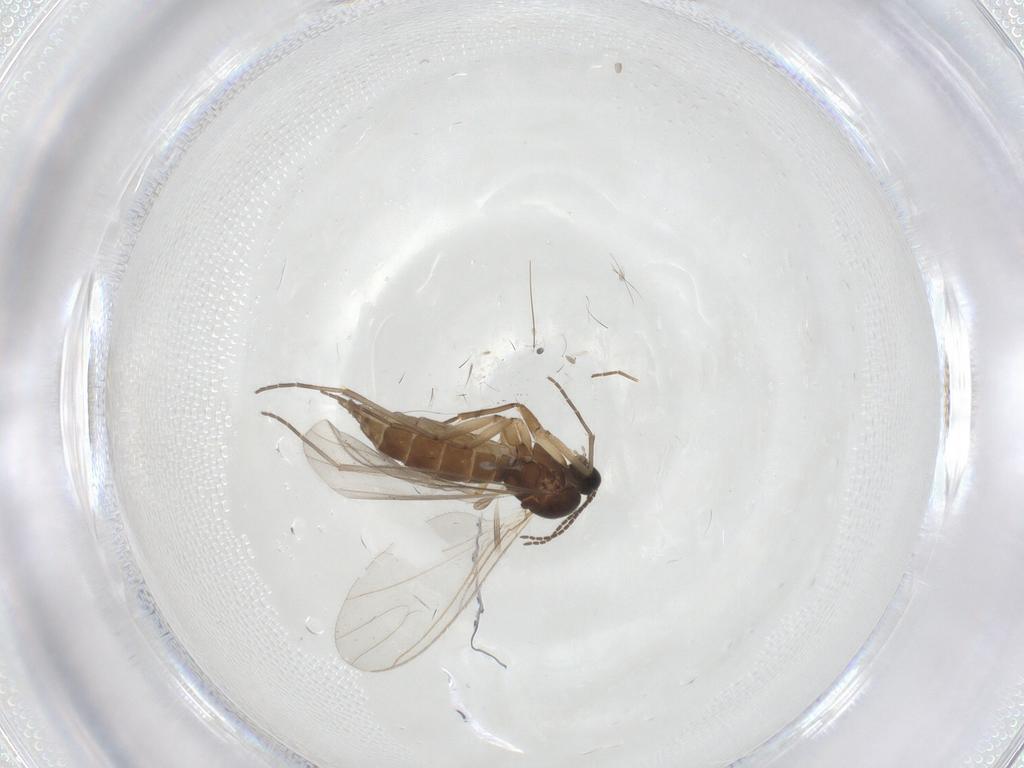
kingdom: Animalia
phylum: Arthropoda
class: Insecta
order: Diptera
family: Sciaridae
